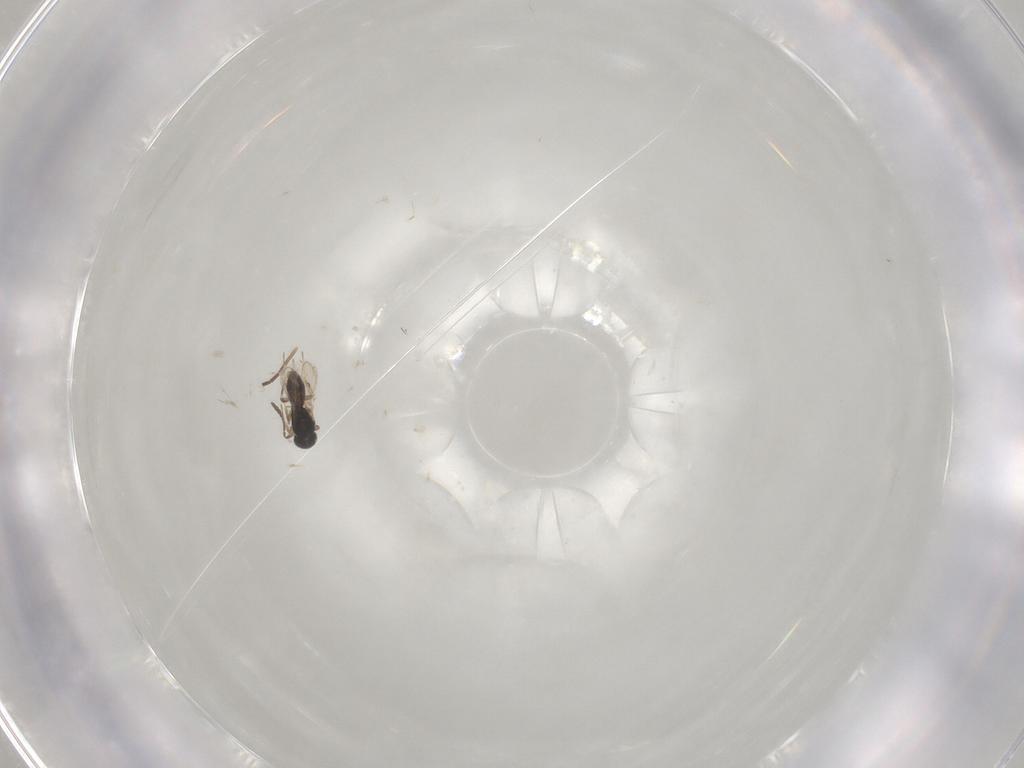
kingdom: Animalia
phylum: Arthropoda
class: Insecta
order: Hymenoptera
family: Scelionidae
